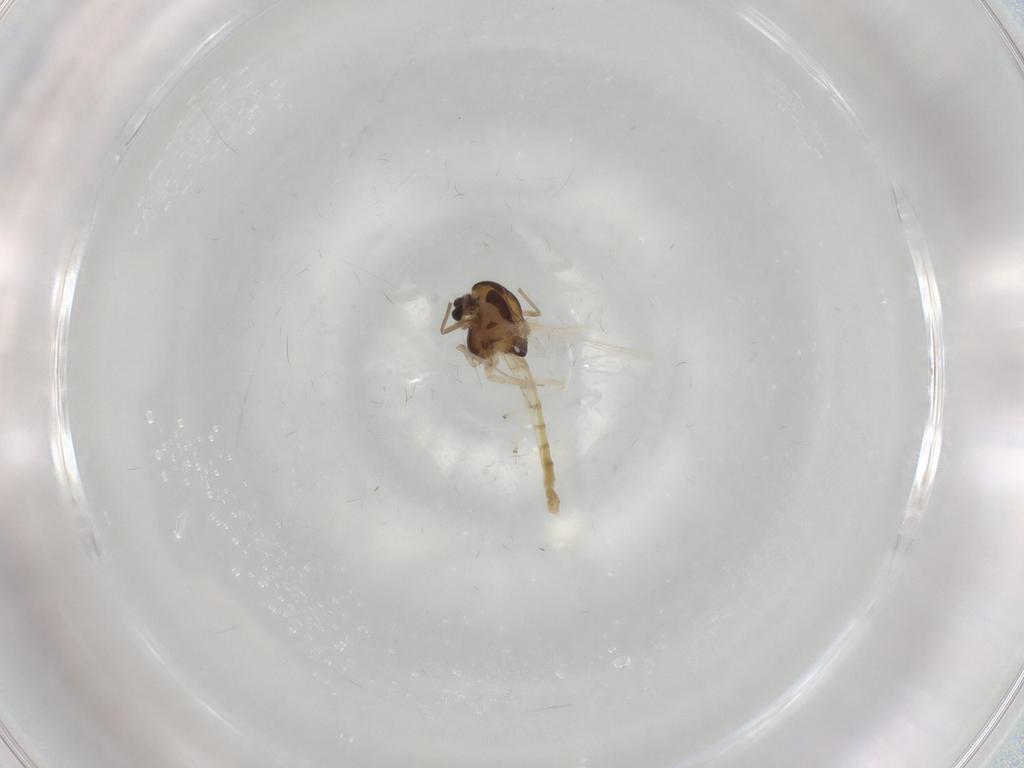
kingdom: Animalia
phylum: Arthropoda
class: Insecta
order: Diptera
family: Chironomidae
